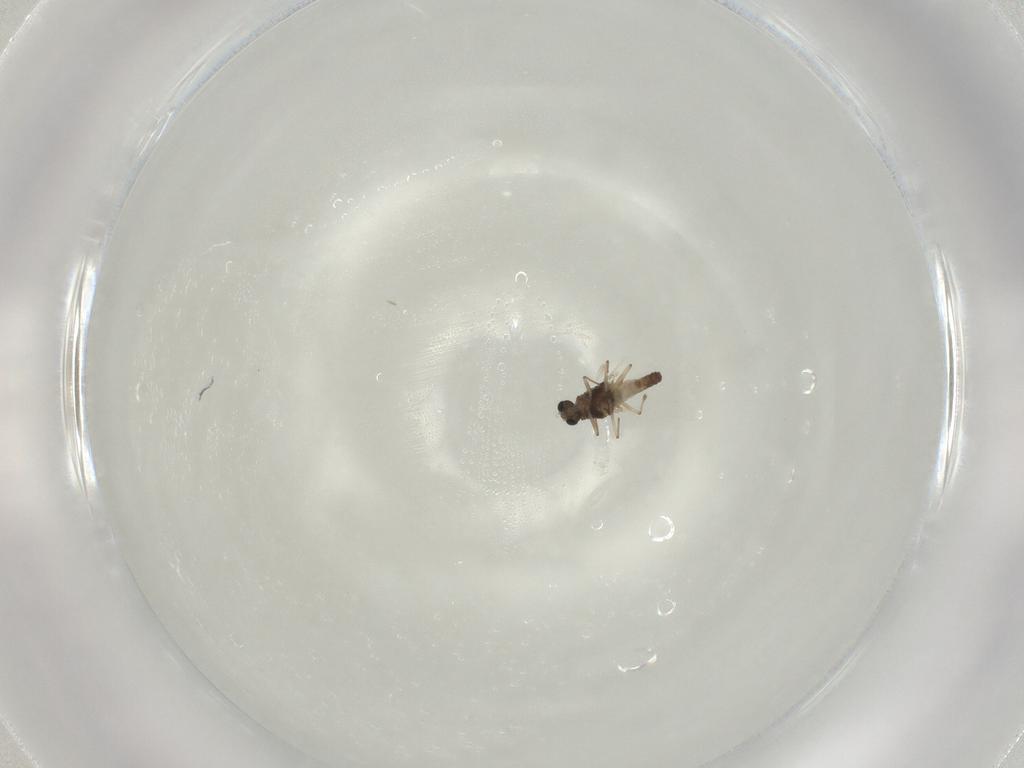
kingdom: Animalia
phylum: Arthropoda
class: Insecta
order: Diptera
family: Chironomidae
